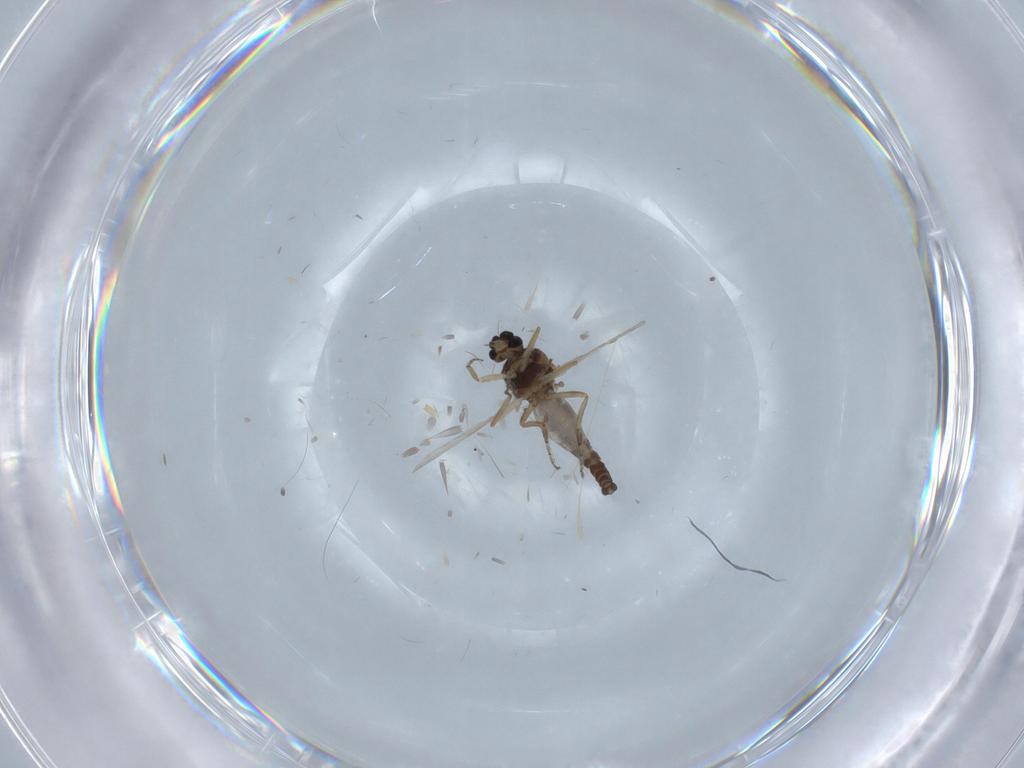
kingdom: Animalia
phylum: Arthropoda
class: Insecta
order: Diptera
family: Ceratopogonidae
